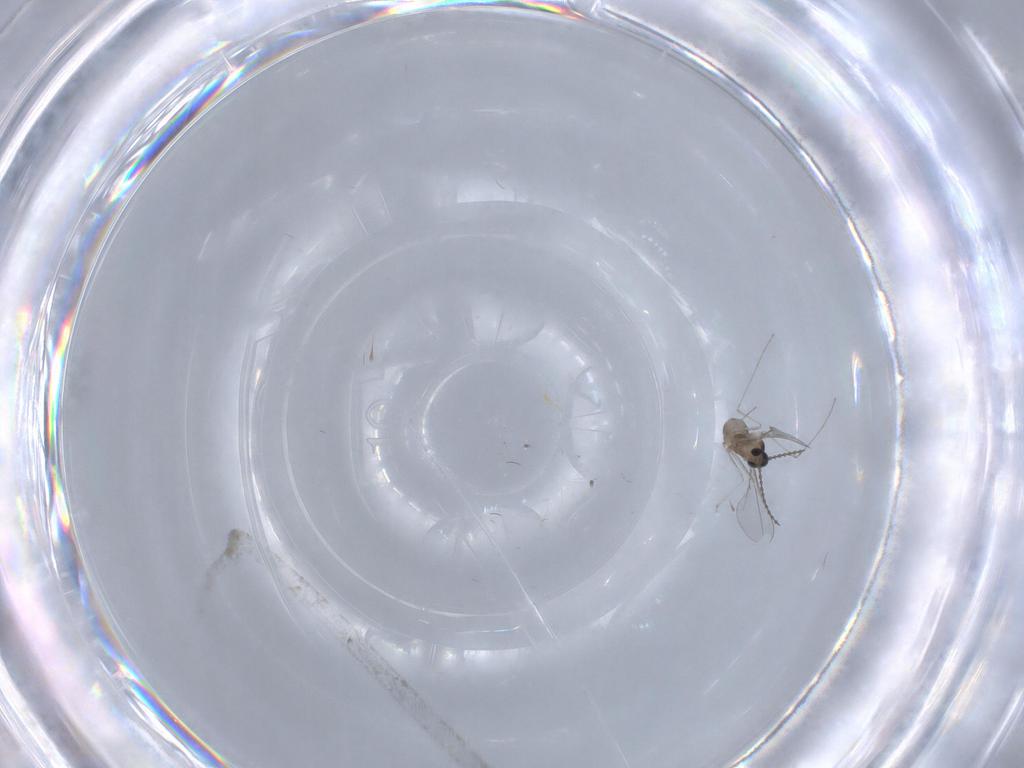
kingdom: Animalia
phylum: Arthropoda
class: Insecta
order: Diptera
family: Cecidomyiidae
